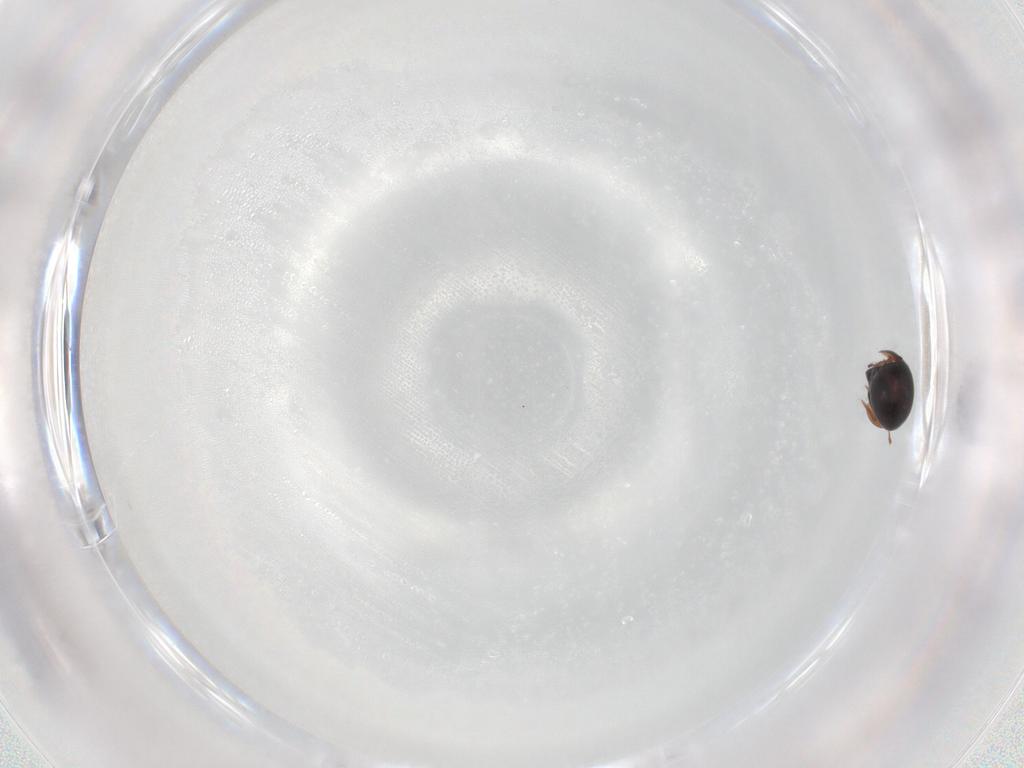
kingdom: Animalia
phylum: Arthropoda
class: Arachnida
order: Sarcoptiformes
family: Ceratozetidae
